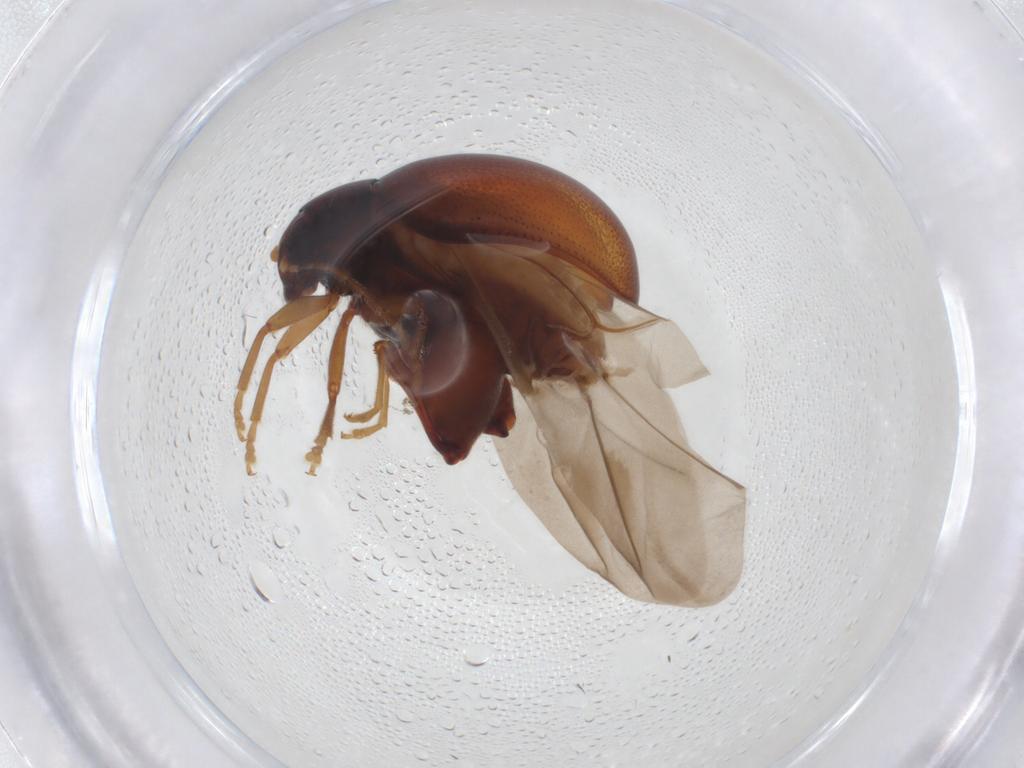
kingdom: Animalia
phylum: Arthropoda
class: Insecta
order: Coleoptera
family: Chrysomelidae
